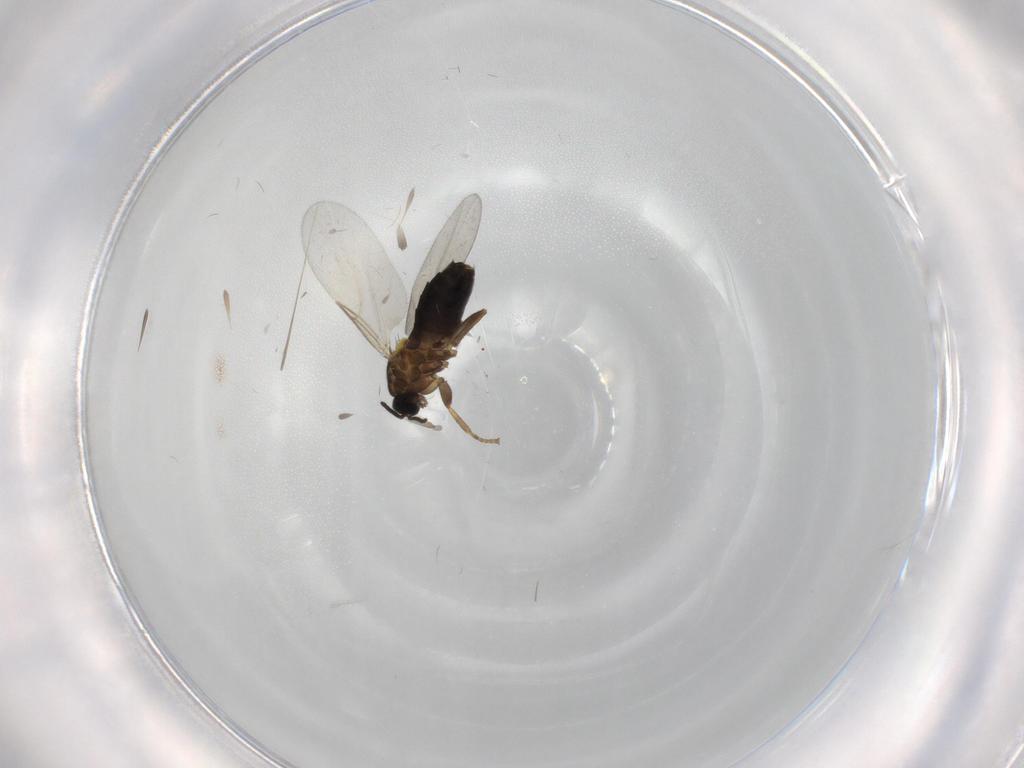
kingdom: Animalia
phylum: Arthropoda
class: Insecta
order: Diptera
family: Scatopsidae
